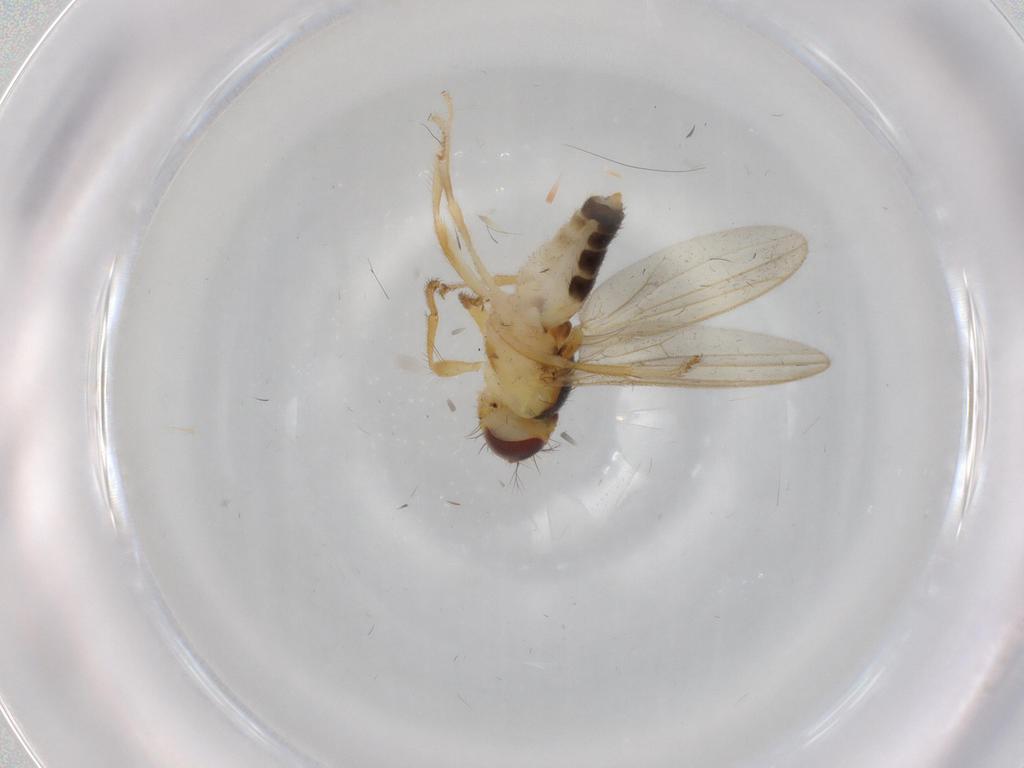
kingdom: Animalia
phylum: Arthropoda
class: Insecta
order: Diptera
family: Periscelididae
